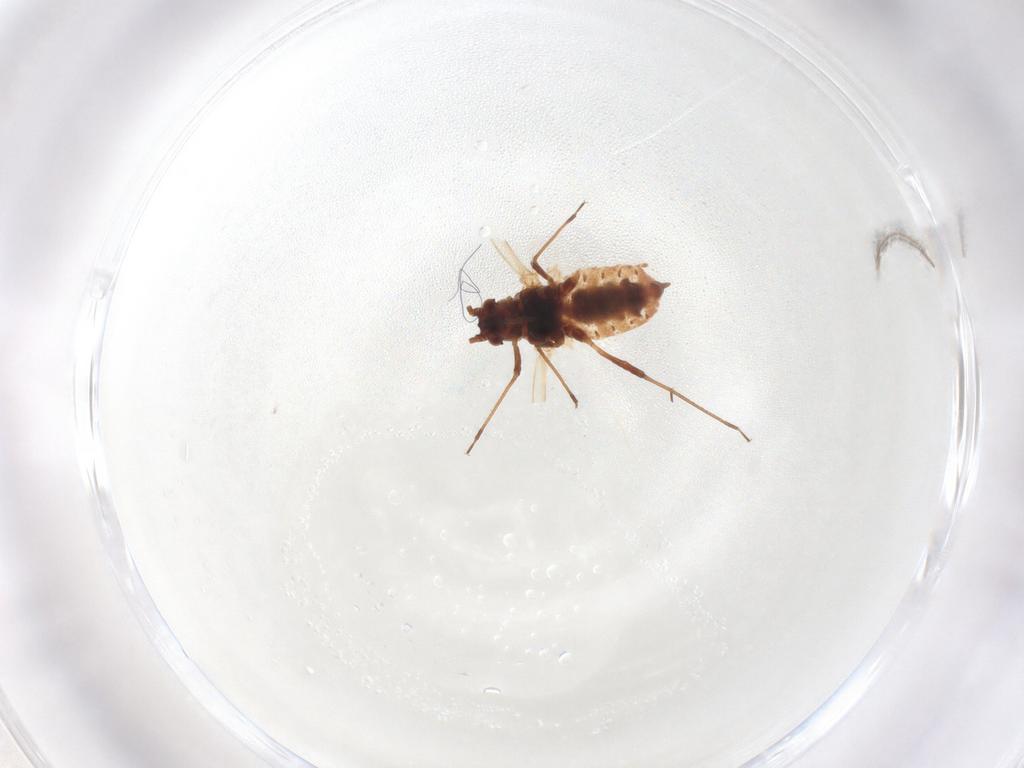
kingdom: Animalia
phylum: Arthropoda
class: Insecta
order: Hemiptera
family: Aphididae
